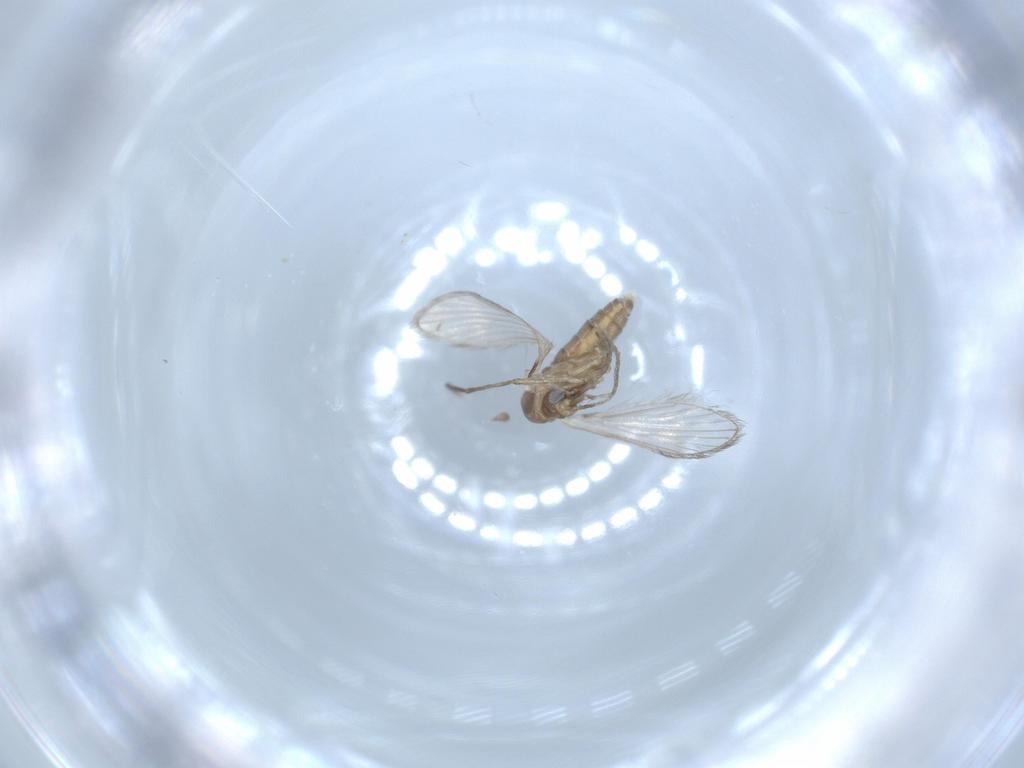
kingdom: Animalia
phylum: Arthropoda
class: Insecta
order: Diptera
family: Psychodidae
